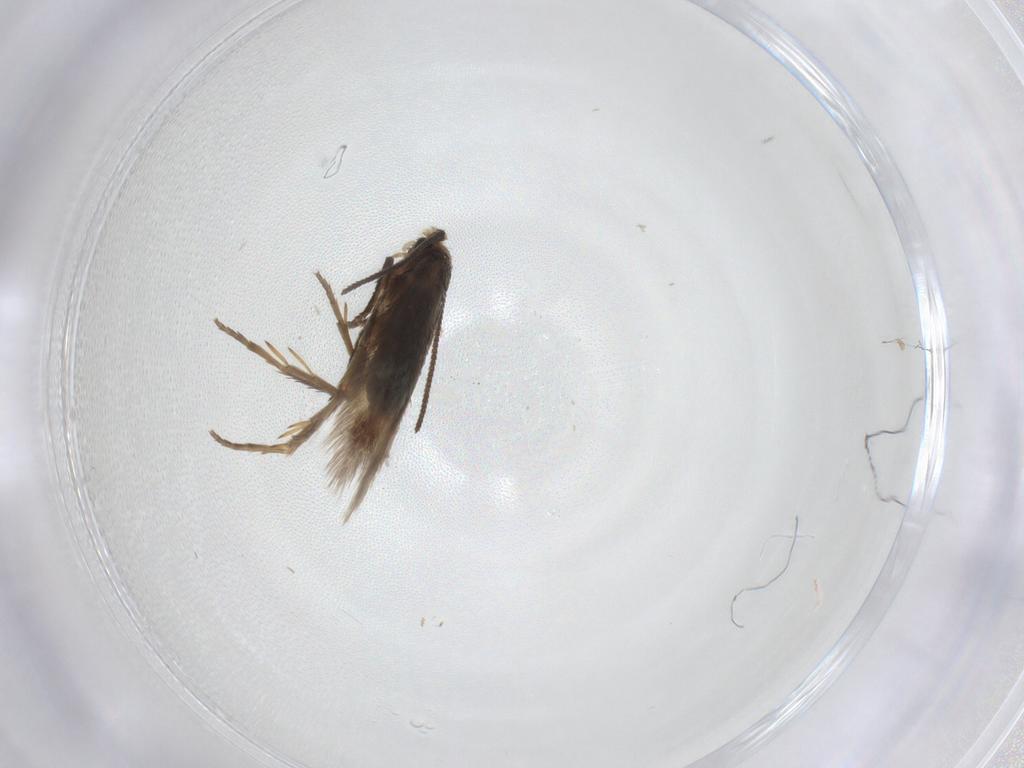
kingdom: Animalia
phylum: Arthropoda
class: Insecta
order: Lepidoptera
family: Nepticulidae
